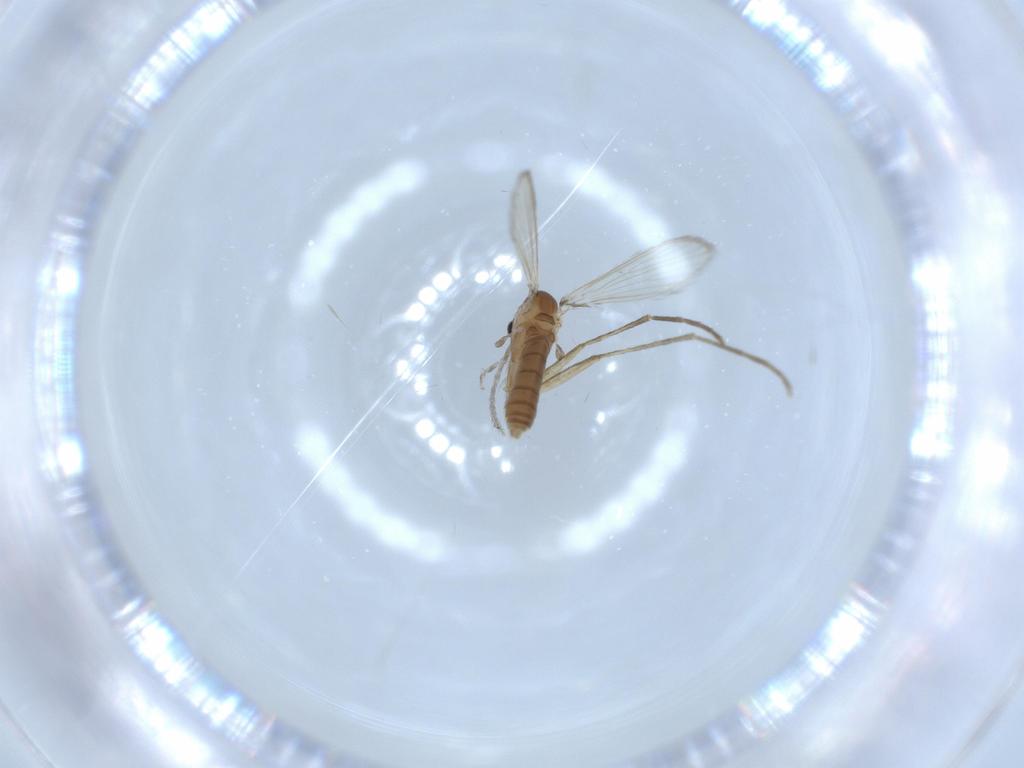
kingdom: Animalia
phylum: Arthropoda
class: Insecta
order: Diptera
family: Psychodidae
